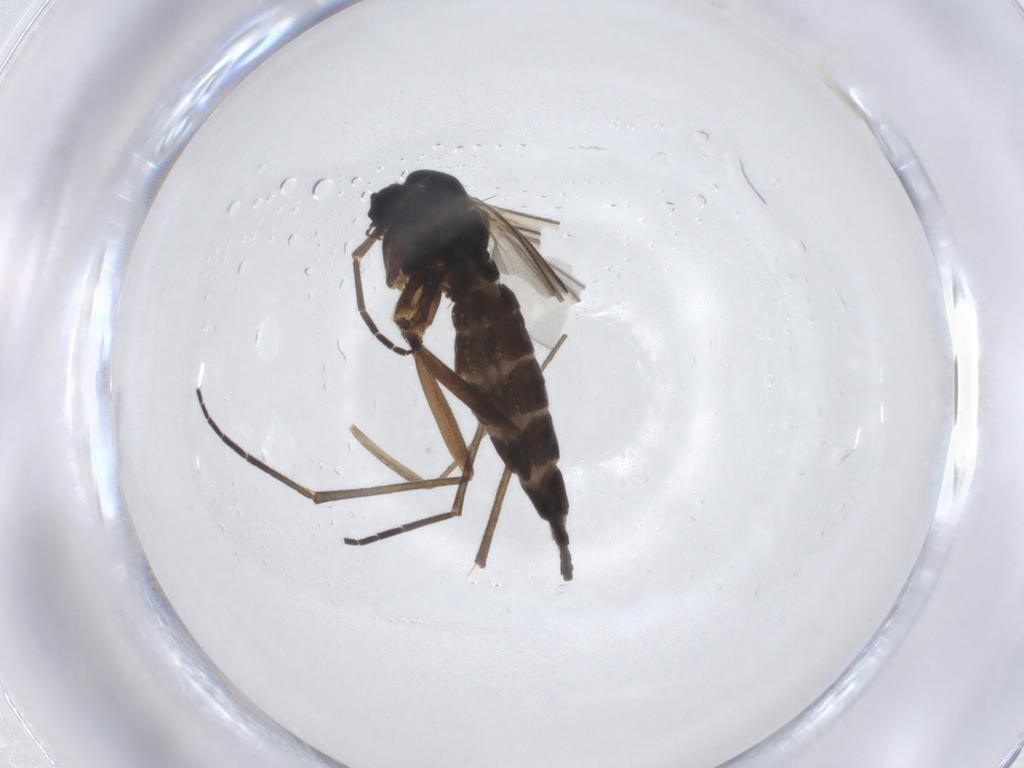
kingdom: Animalia
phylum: Arthropoda
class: Insecta
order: Diptera
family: Sciaridae
